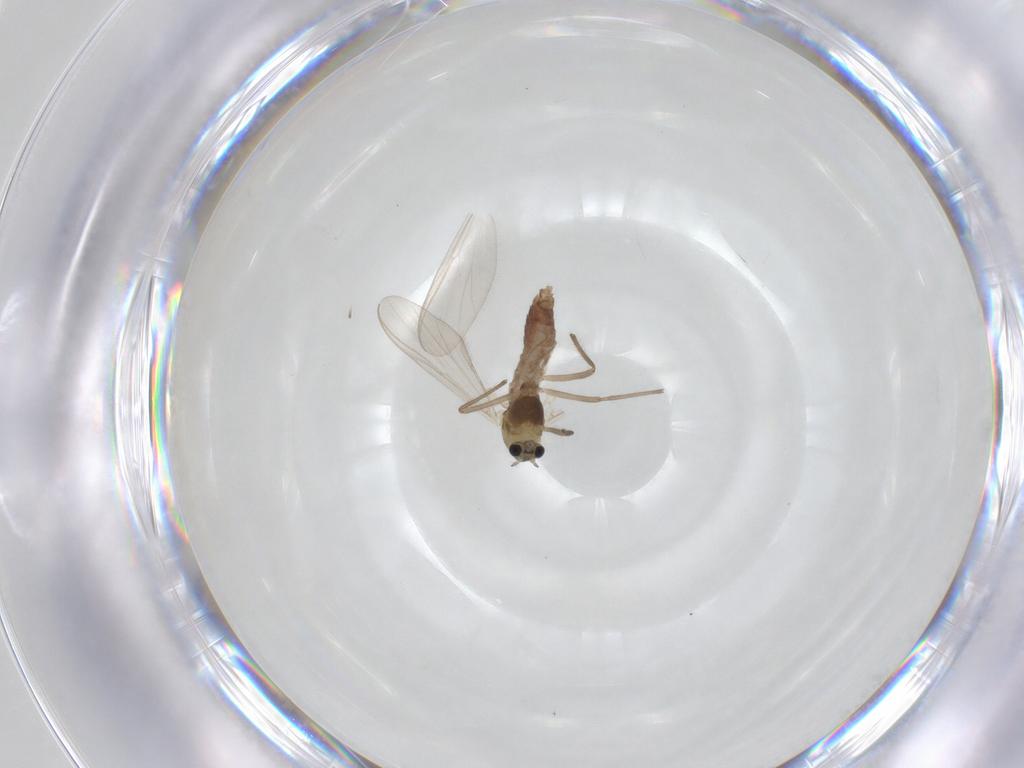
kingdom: Animalia
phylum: Arthropoda
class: Insecta
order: Diptera
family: Chironomidae
